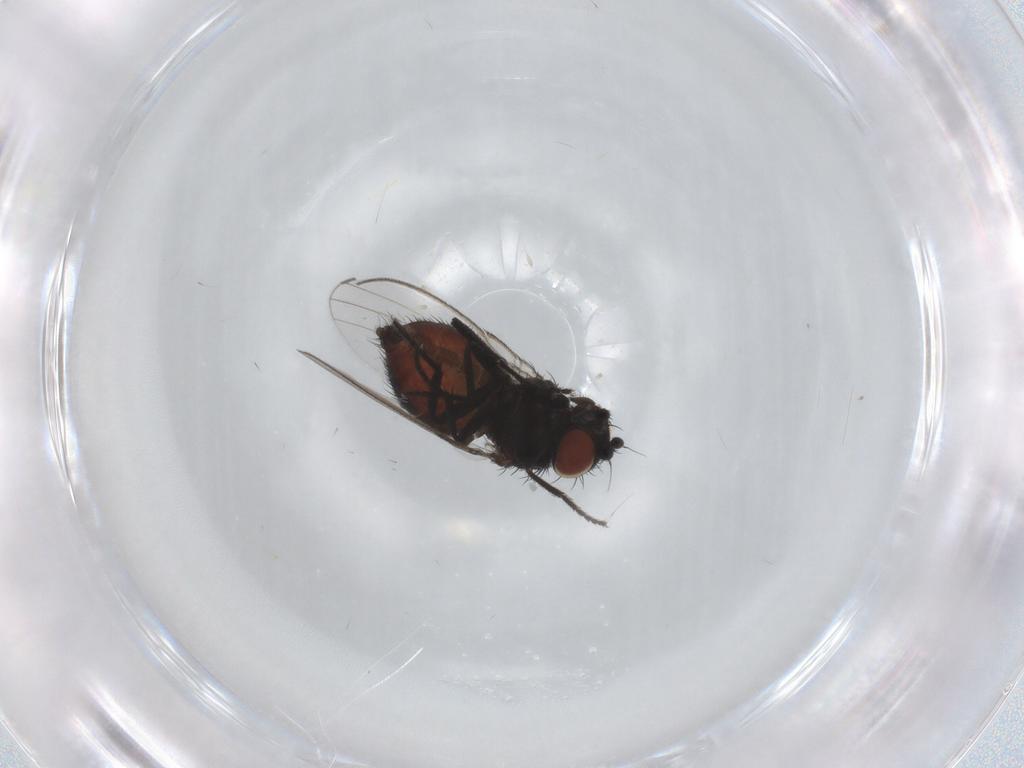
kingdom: Animalia
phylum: Arthropoda
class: Insecta
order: Diptera
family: Milichiidae
